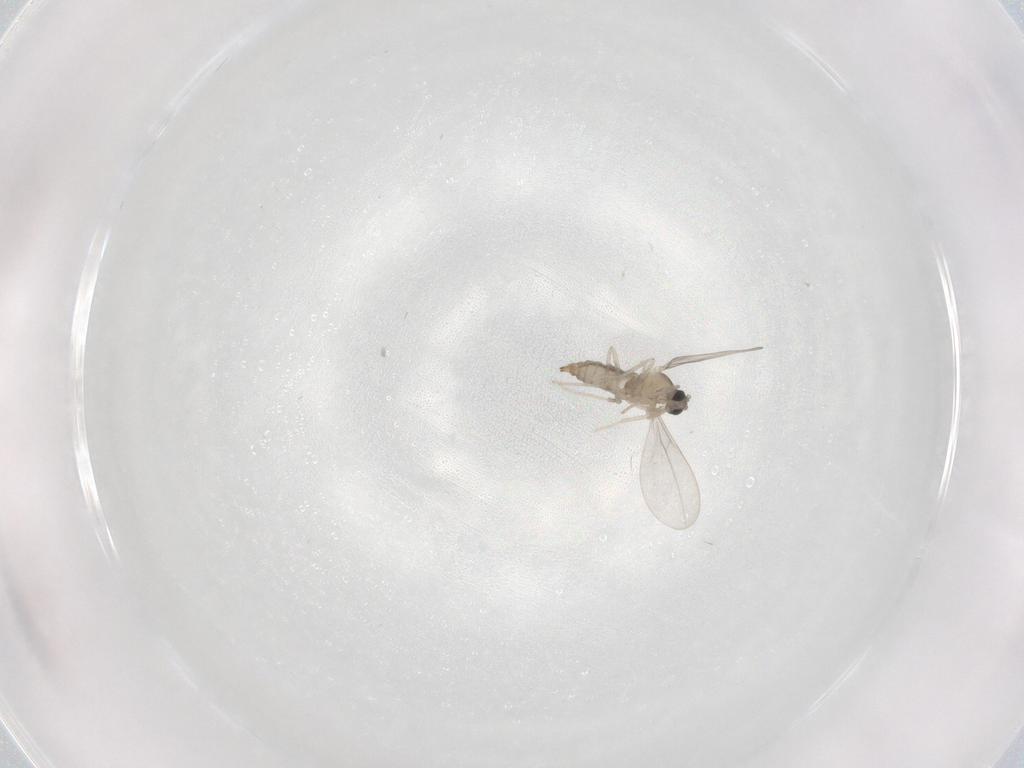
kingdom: Animalia
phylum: Arthropoda
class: Insecta
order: Diptera
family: Cecidomyiidae
